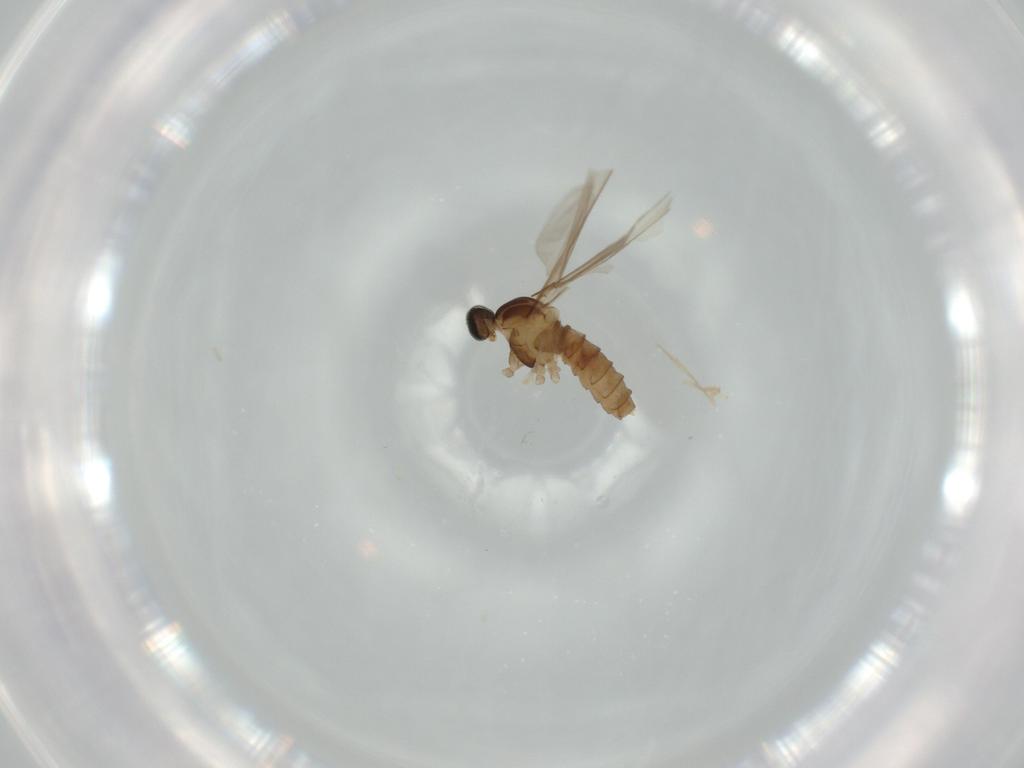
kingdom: Animalia
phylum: Arthropoda
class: Insecta
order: Diptera
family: Cecidomyiidae
